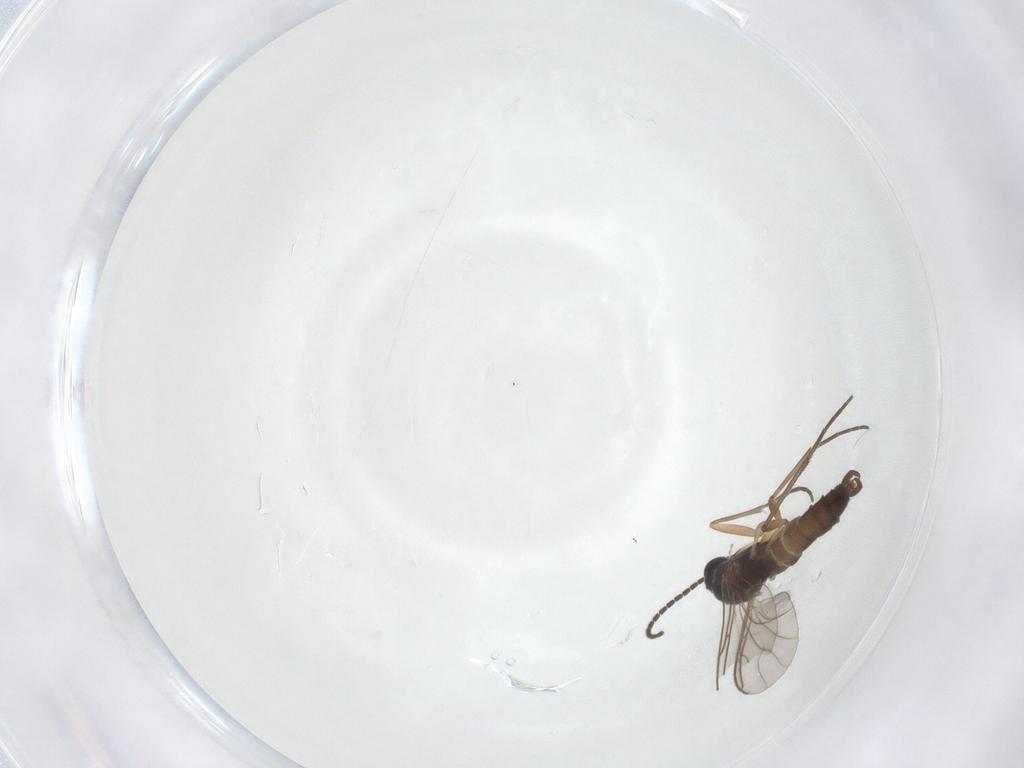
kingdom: Animalia
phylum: Arthropoda
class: Insecta
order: Diptera
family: Sciaridae
